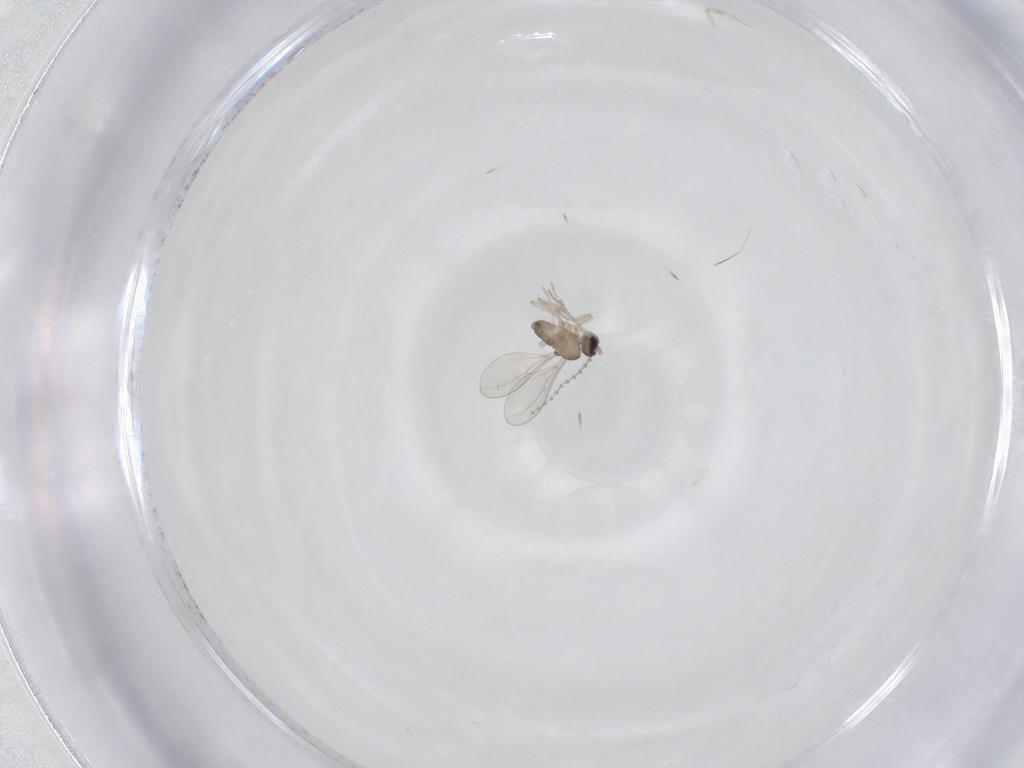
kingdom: Animalia
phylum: Arthropoda
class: Insecta
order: Diptera
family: Cecidomyiidae
